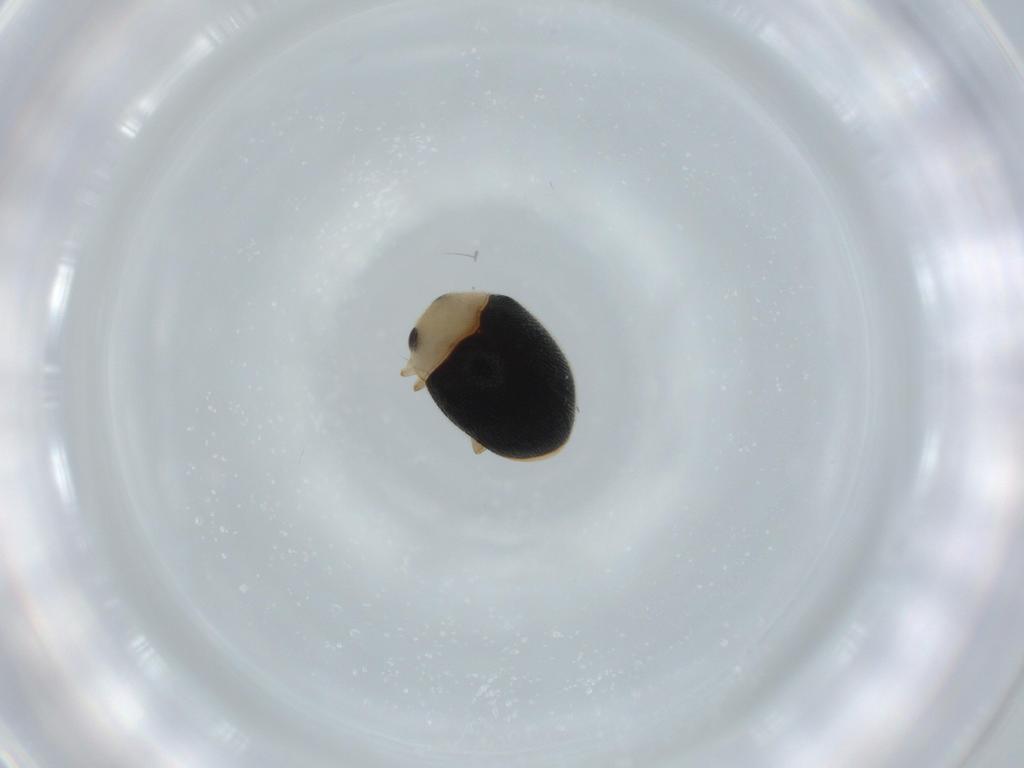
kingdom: Animalia
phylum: Arthropoda
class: Insecta
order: Coleoptera
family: Coccinellidae
